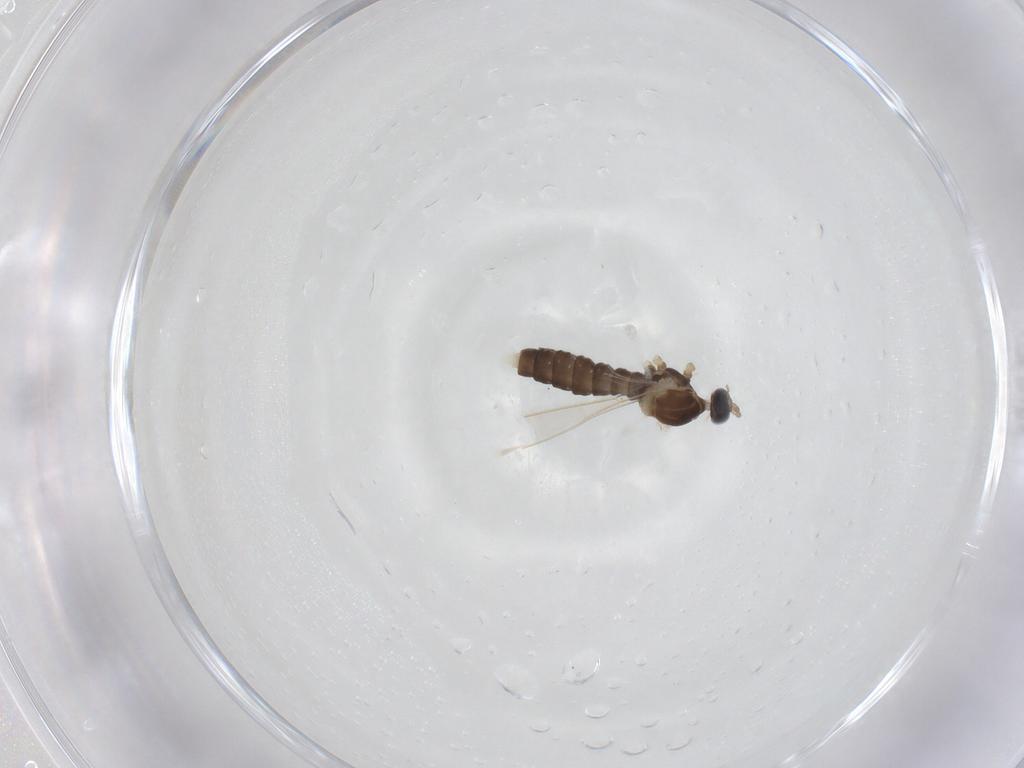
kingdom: Animalia
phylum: Arthropoda
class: Insecta
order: Diptera
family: Cecidomyiidae
